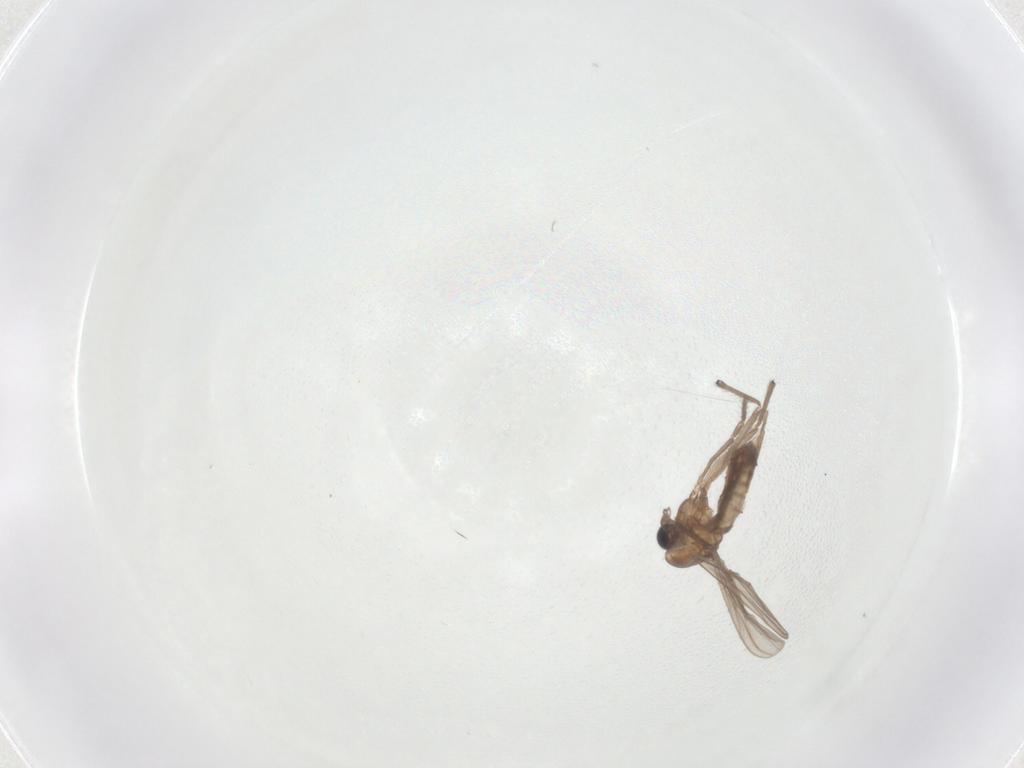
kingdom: Animalia
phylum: Arthropoda
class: Insecta
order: Diptera
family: Chironomidae
